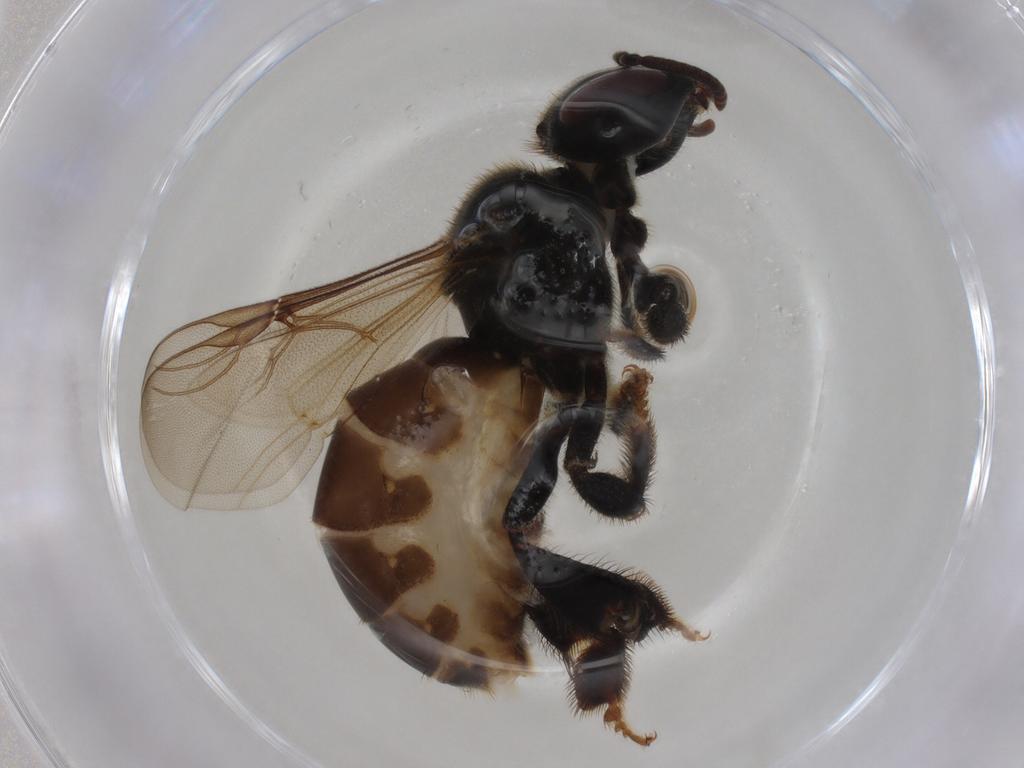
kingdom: Animalia
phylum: Arthropoda
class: Insecta
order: Hymenoptera
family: Apidae
